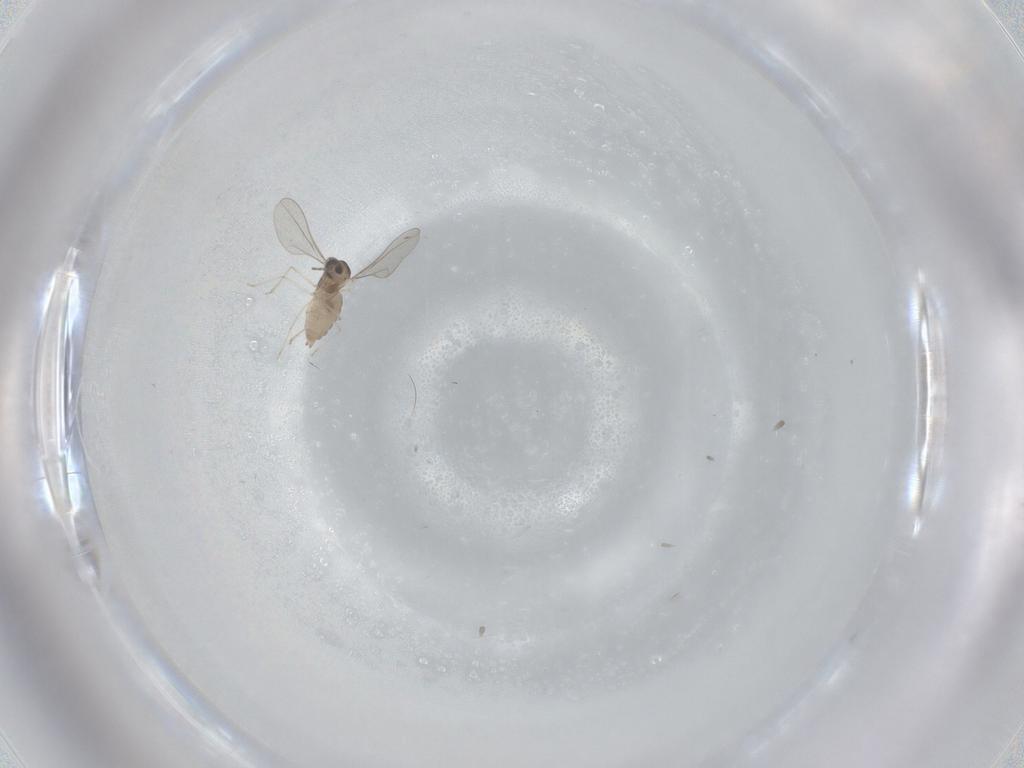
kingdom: Animalia
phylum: Arthropoda
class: Insecta
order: Diptera
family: Cecidomyiidae
